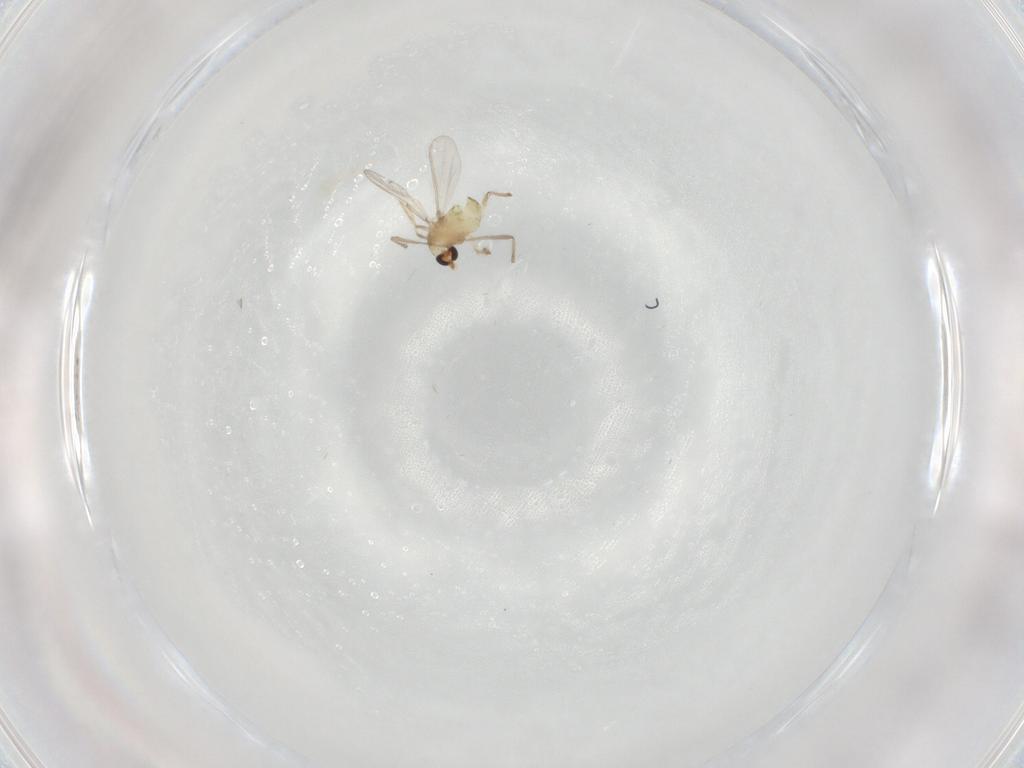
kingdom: Animalia
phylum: Arthropoda
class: Insecta
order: Diptera
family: Chironomidae
